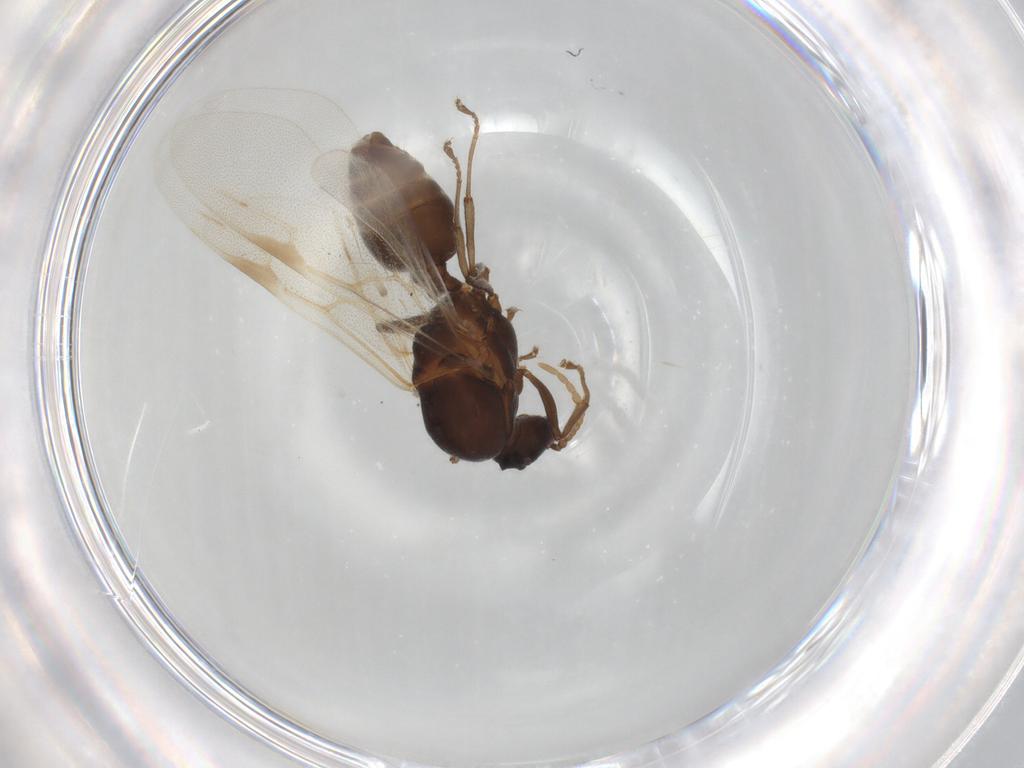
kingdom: Animalia
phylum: Arthropoda
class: Insecta
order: Hymenoptera
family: Formicidae
